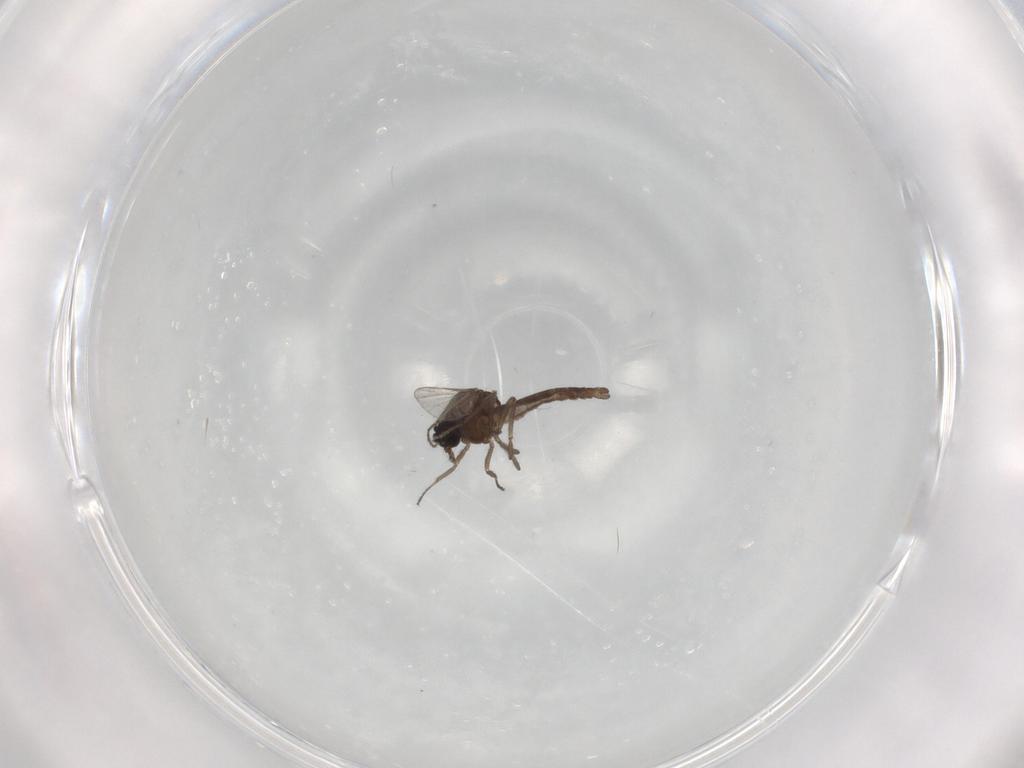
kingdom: Animalia
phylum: Arthropoda
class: Insecta
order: Diptera
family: Ceratopogonidae
